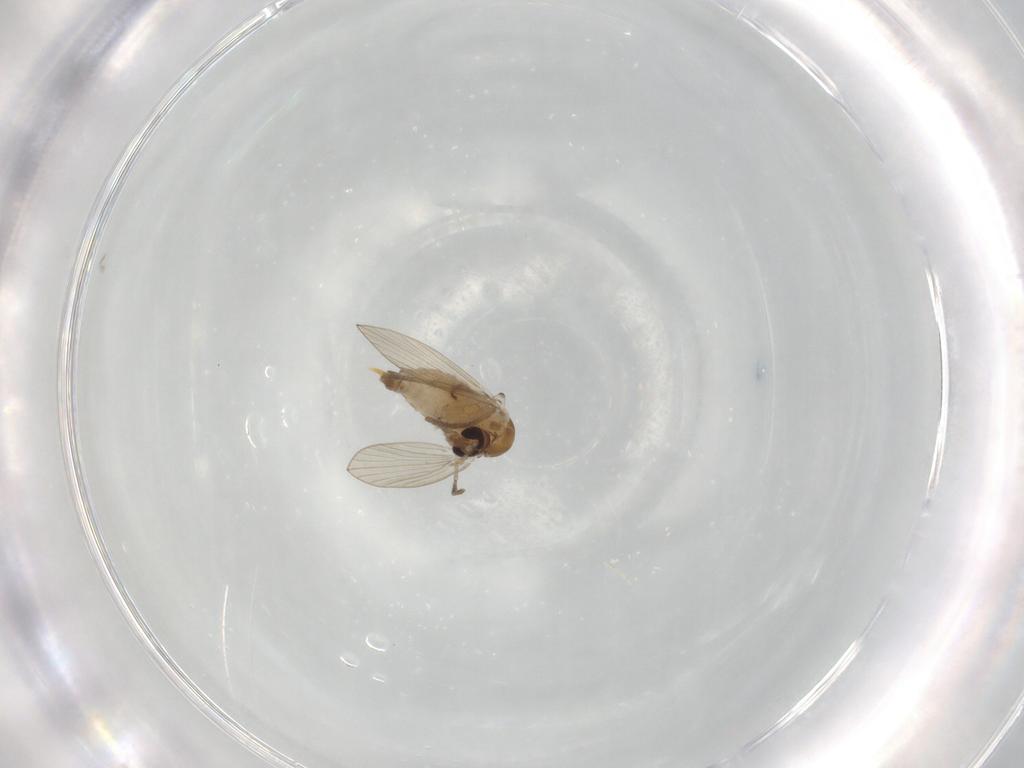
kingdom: Animalia
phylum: Arthropoda
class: Insecta
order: Diptera
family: Psychodidae
